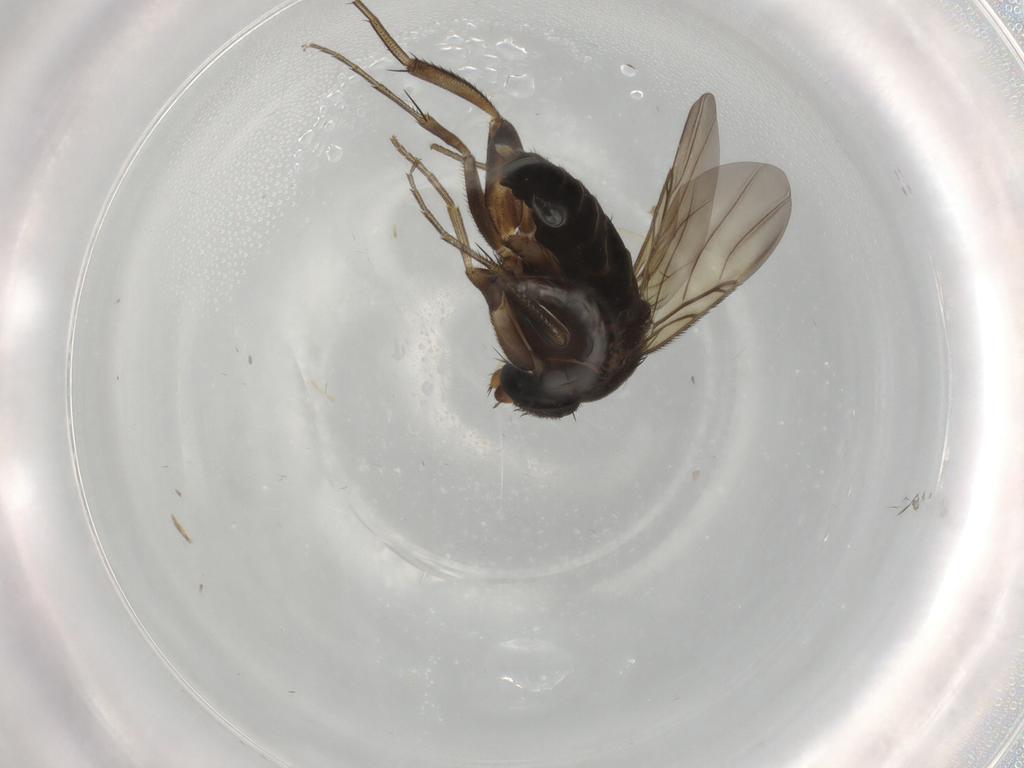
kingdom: Animalia
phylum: Arthropoda
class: Insecta
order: Diptera
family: Phoridae
